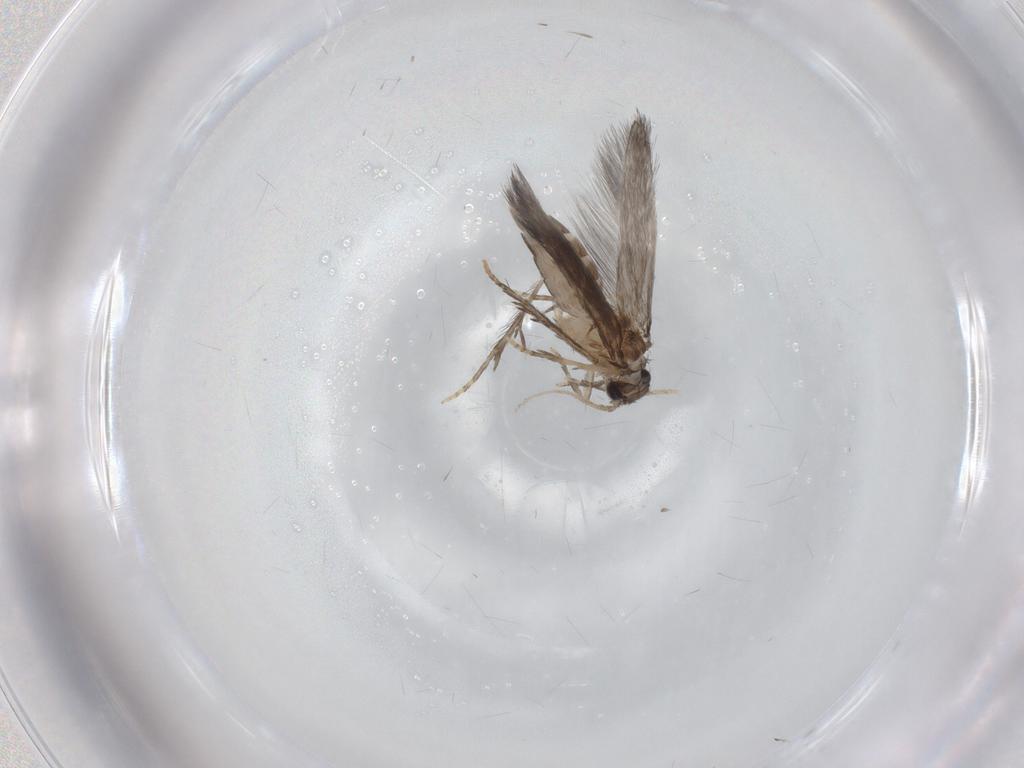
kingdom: Animalia
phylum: Arthropoda
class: Insecta
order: Trichoptera
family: Hydroptilidae
